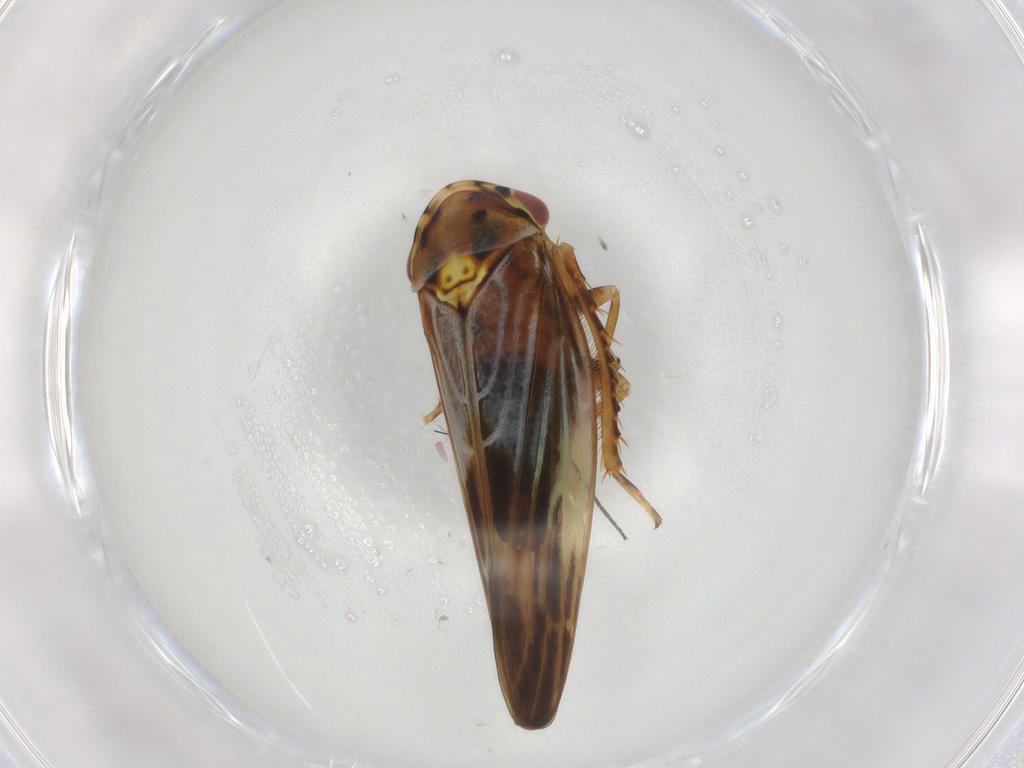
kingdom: Animalia
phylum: Arthropoda
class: Insecta
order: Hemiptera
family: Cicadellidae
